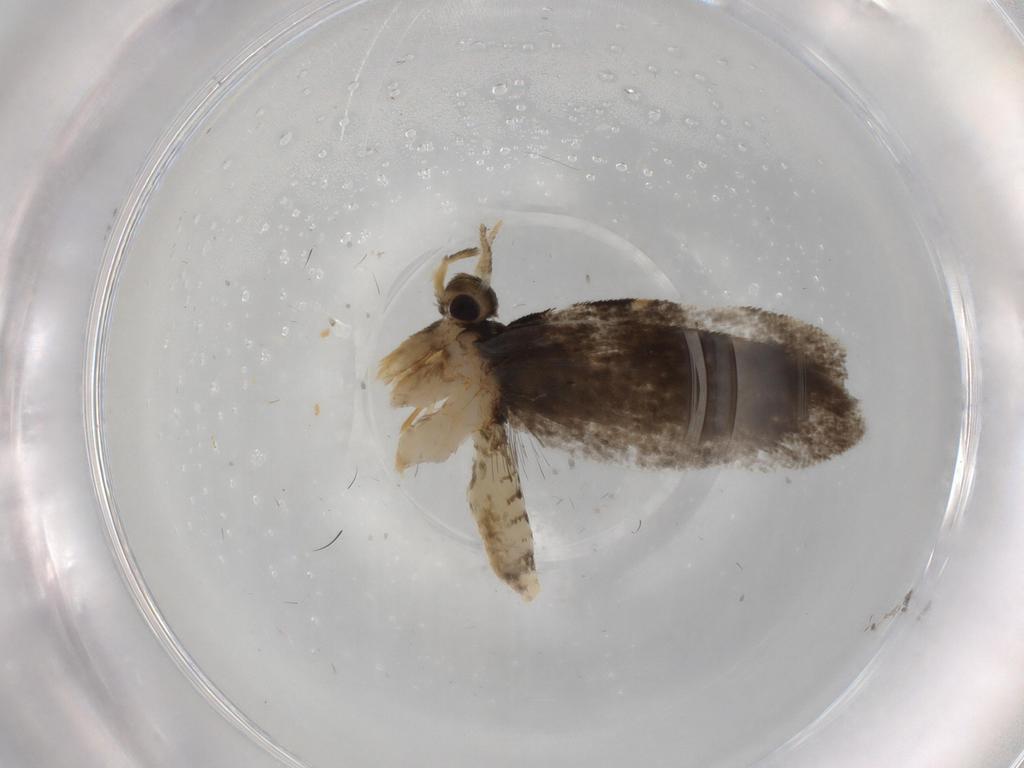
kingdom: Animalia
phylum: Arthropoda
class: Insecta
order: Lepidoptera
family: Psychidae
